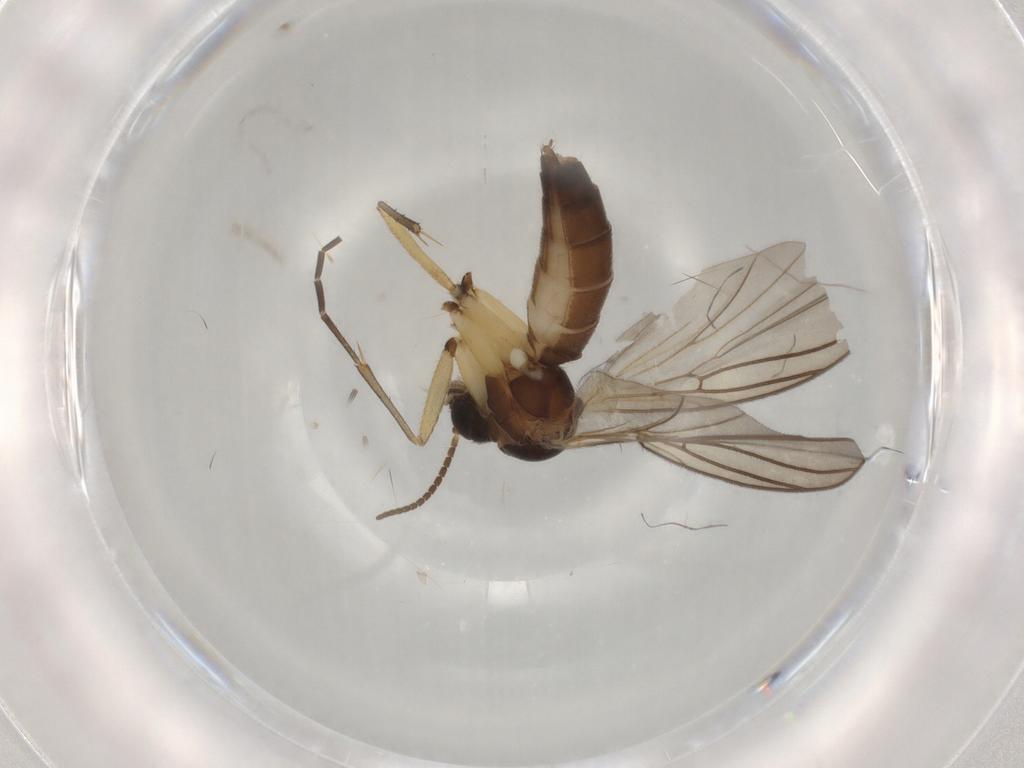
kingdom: Animalia
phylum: Arthropoda
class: Insecta
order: Diptera
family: Mycetophilidae
